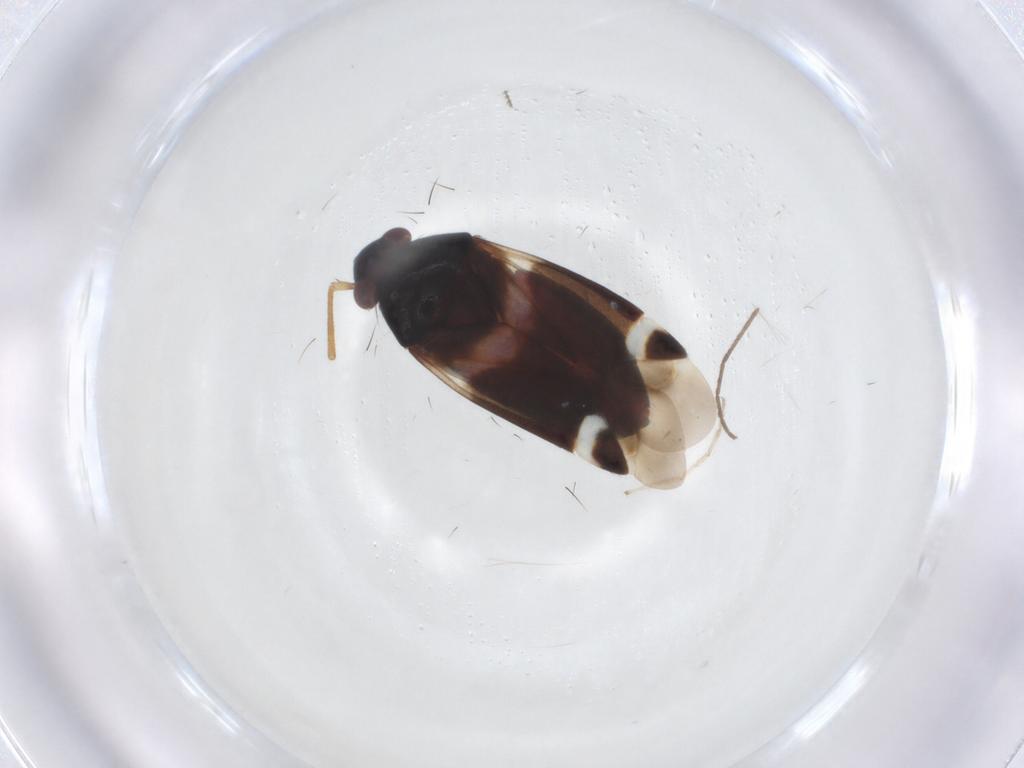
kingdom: Animalia
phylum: Arthropoda
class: Insecta
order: Hemiptera
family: Miridae
